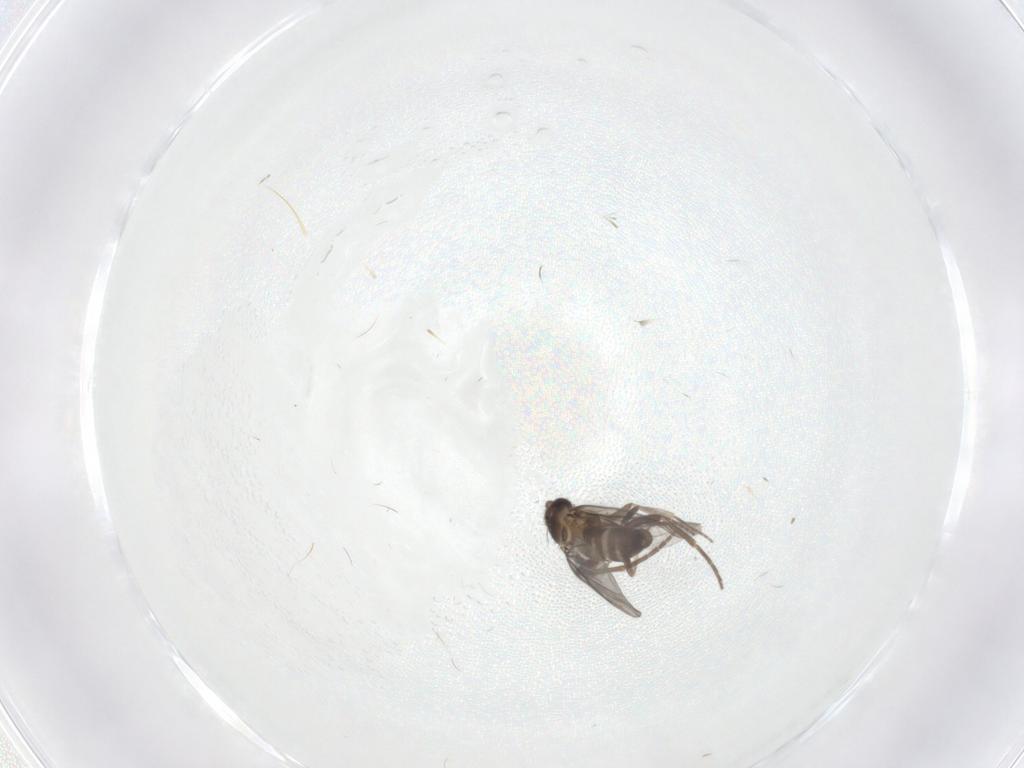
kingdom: Animalia
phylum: Arthropoda
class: Insecta
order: Diptera
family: Phoridae
